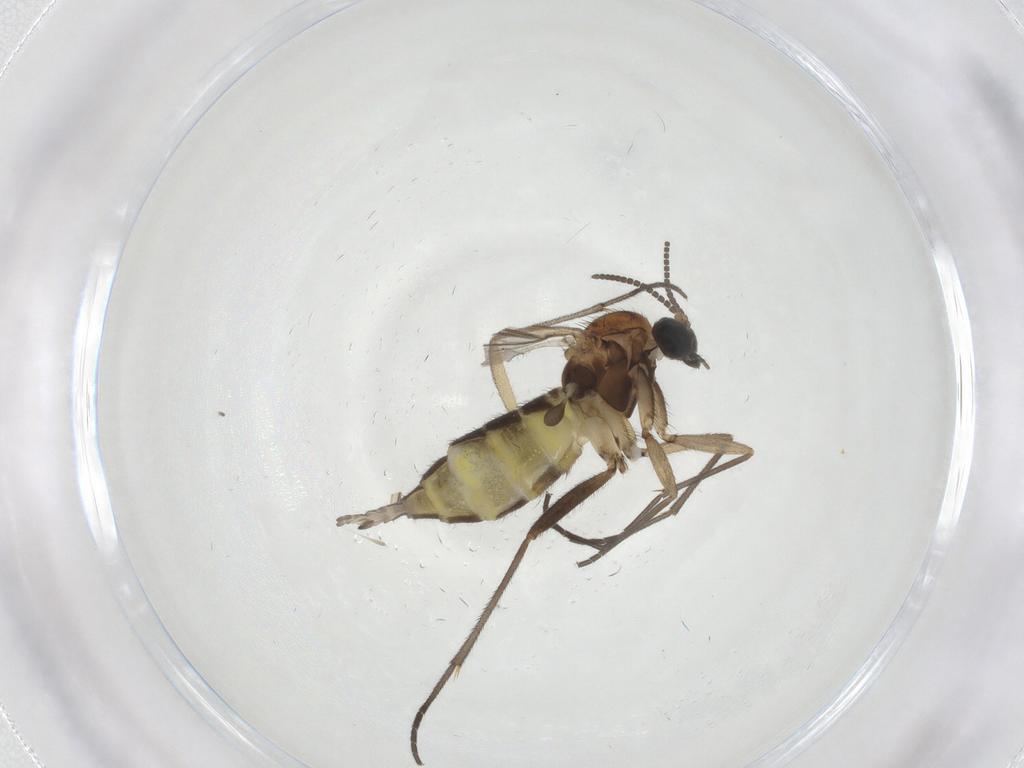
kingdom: Animalia
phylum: Arthropoda
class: Insecta
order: Diptera
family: Sciaridae
